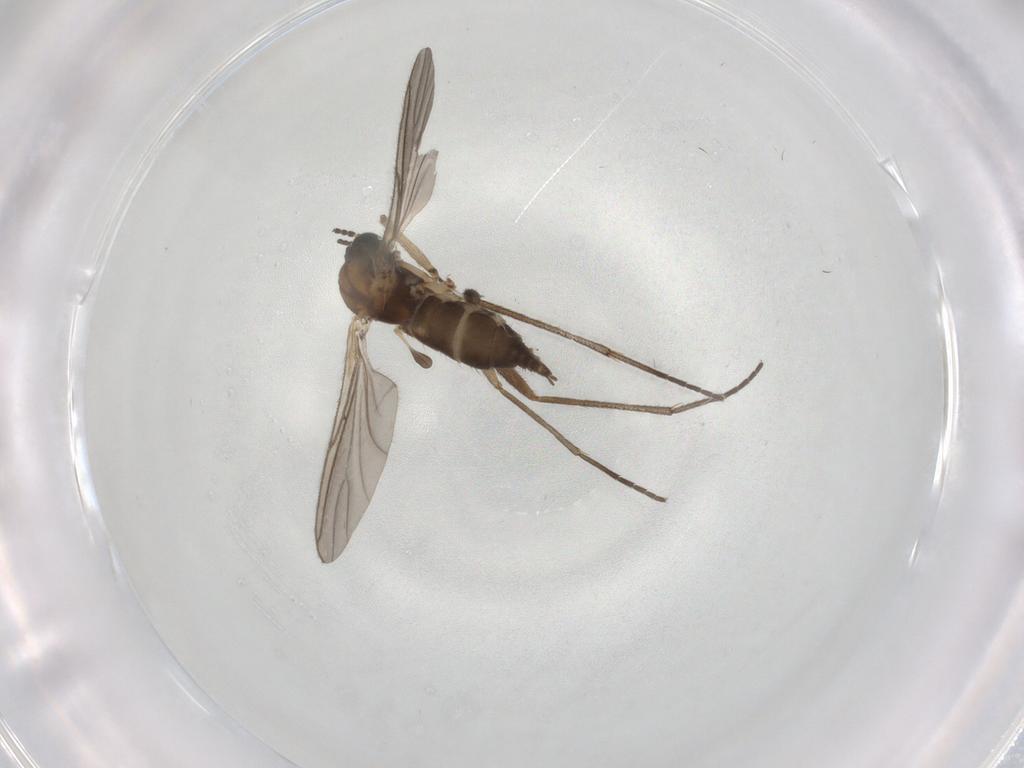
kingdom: Animalia
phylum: Arthropoda
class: Insecta
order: Diptera
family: Sciaridae
